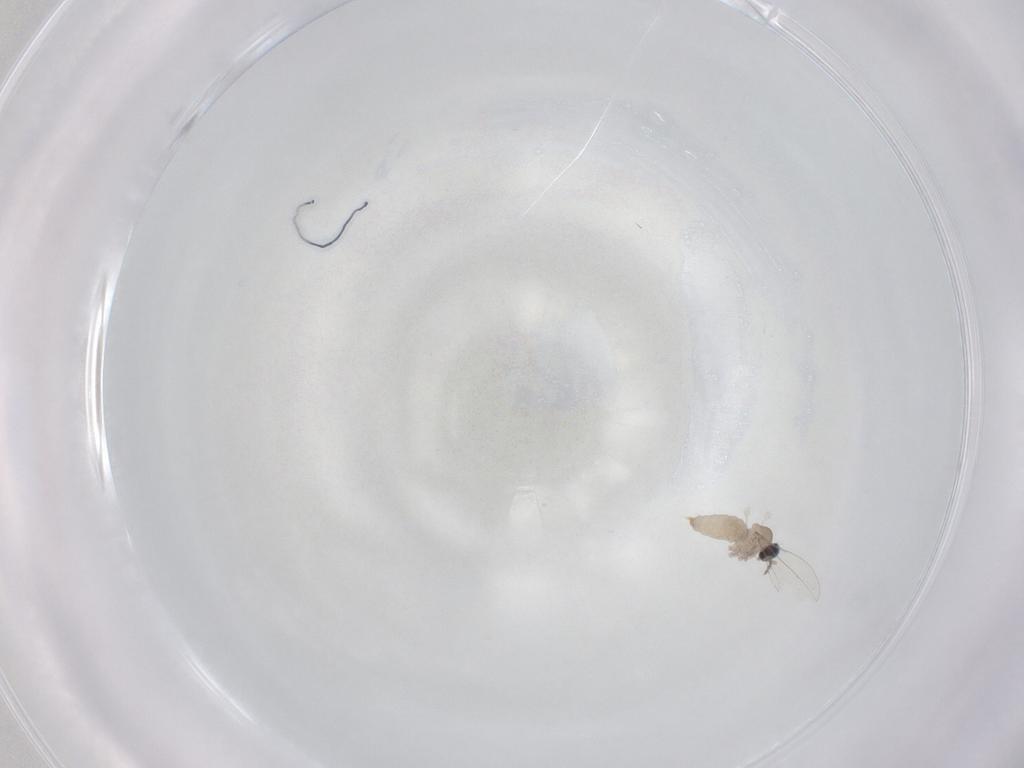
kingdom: Animalia
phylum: Arthropoda
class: Insecta
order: Diptera
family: Cecidomyiidae
